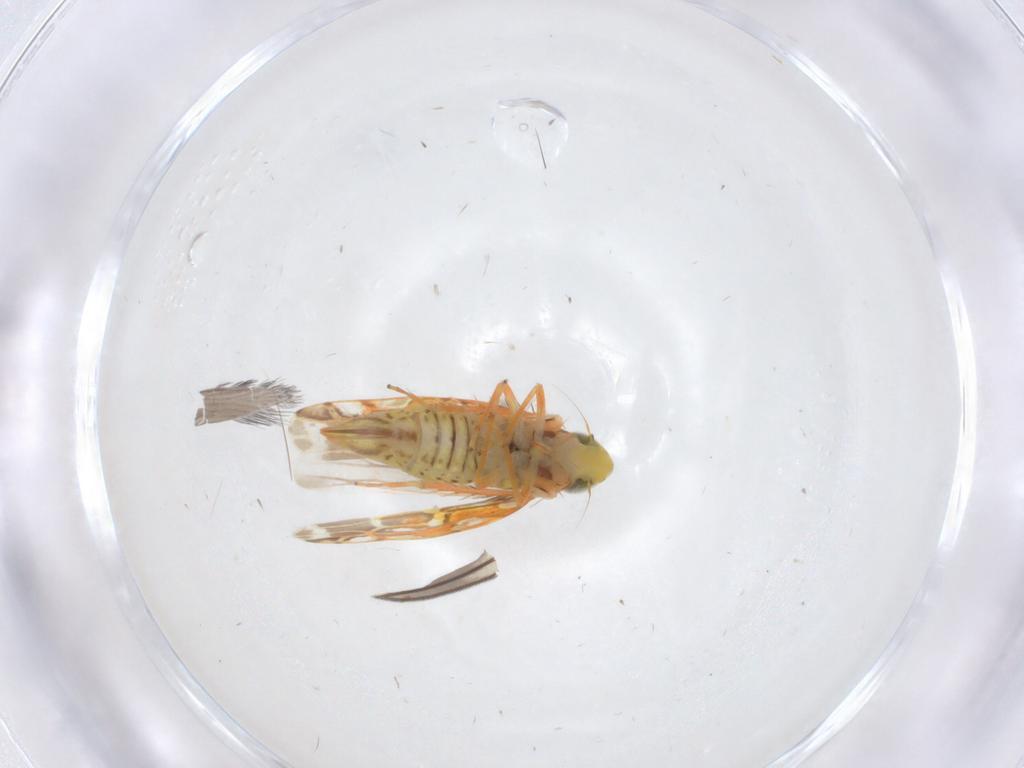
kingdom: Animalia
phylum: Arthropoda
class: Insecta
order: Hemiptera
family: Cicadellidae
